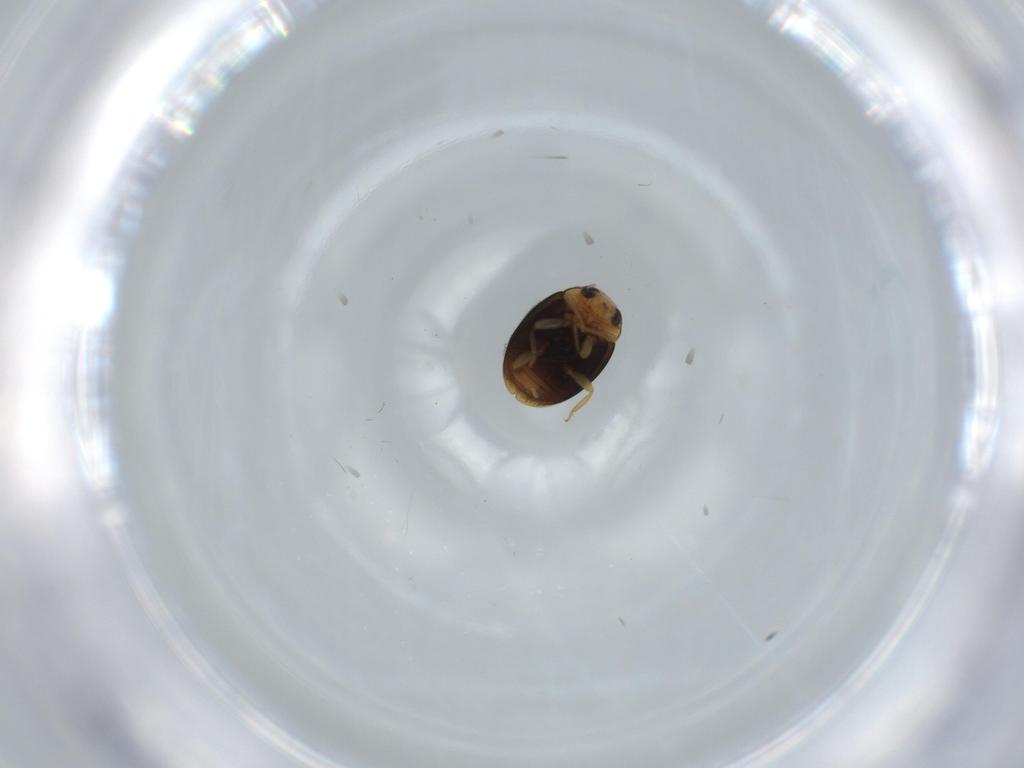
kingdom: Animalia
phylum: Arthropoda
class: Insecta
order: Coleoptera
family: Coccinellidae
